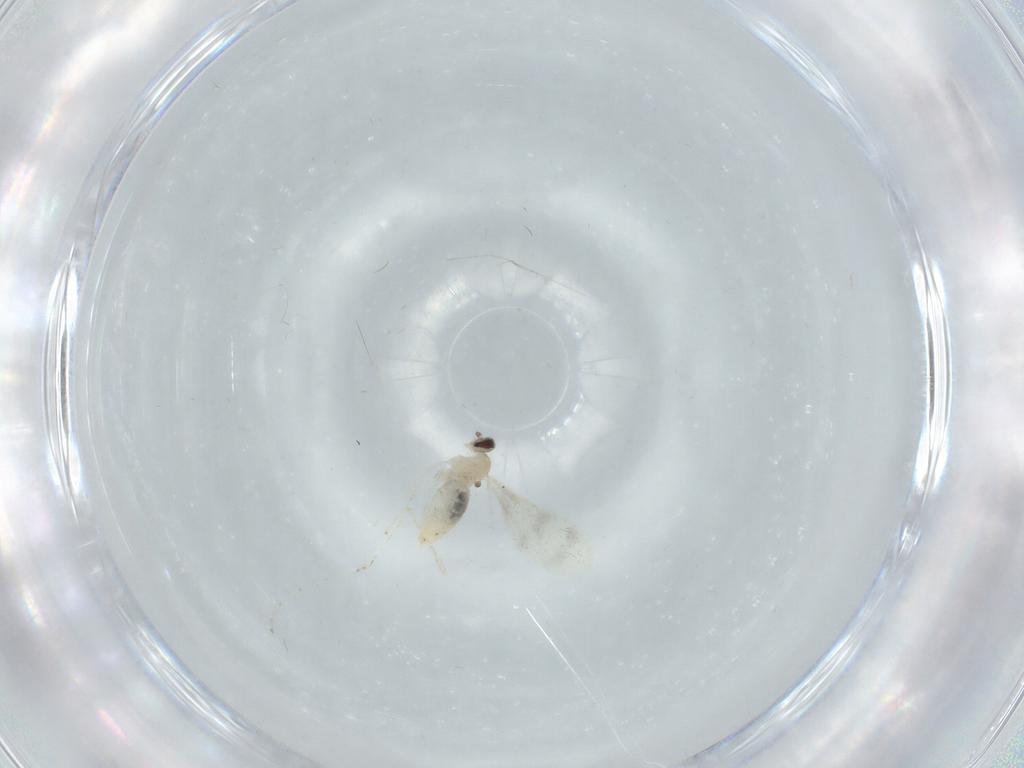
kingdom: Animalia
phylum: Arthropoda
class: Insecta
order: Diptera
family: Cecidomyiidae
